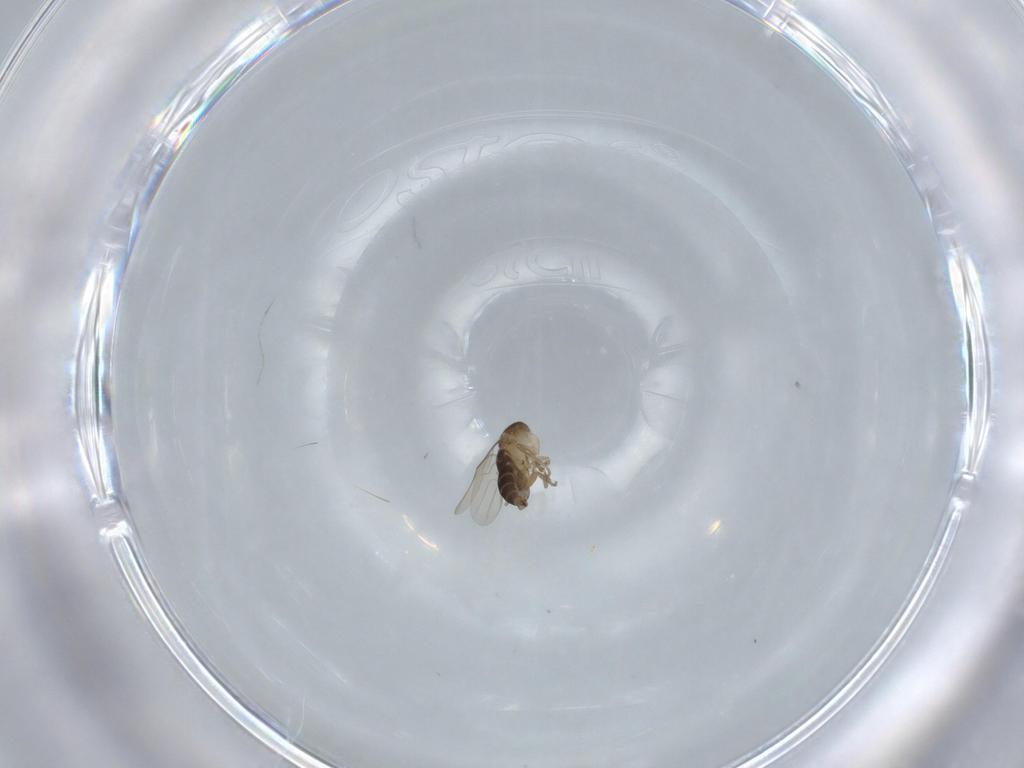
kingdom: Animalia
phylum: Arthropoda
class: Insecta
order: Diptera
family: Phoridae
